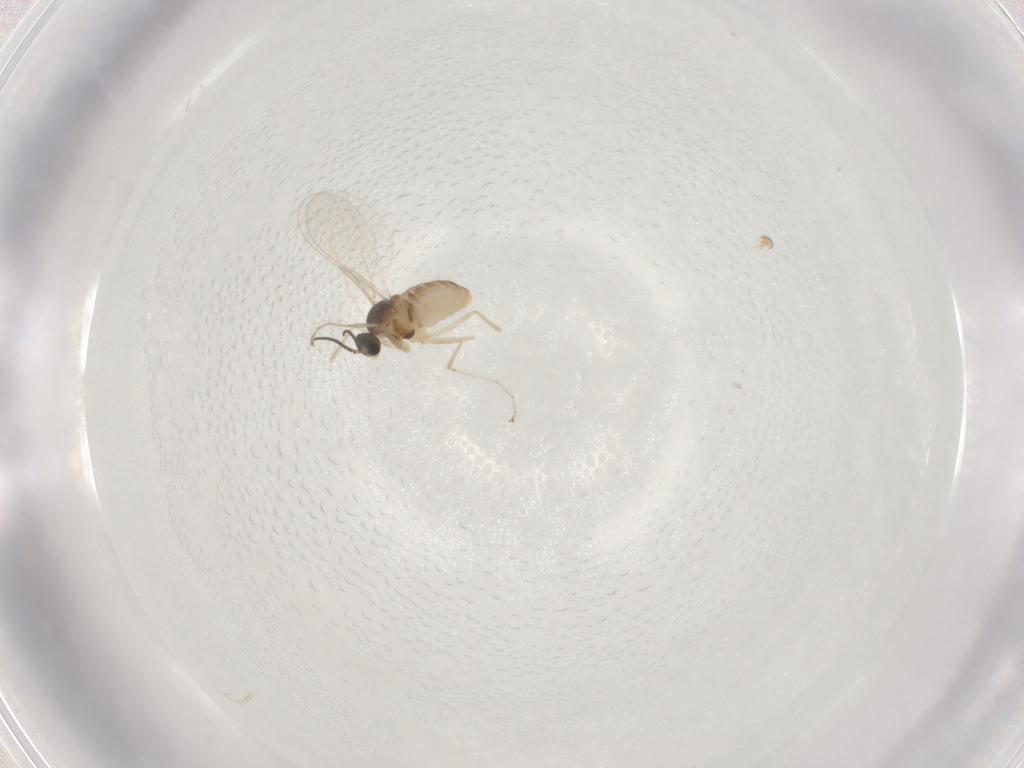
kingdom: Animalia
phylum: Arthropoda
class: Insecta
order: Diptera
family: Cecidomyiidae
